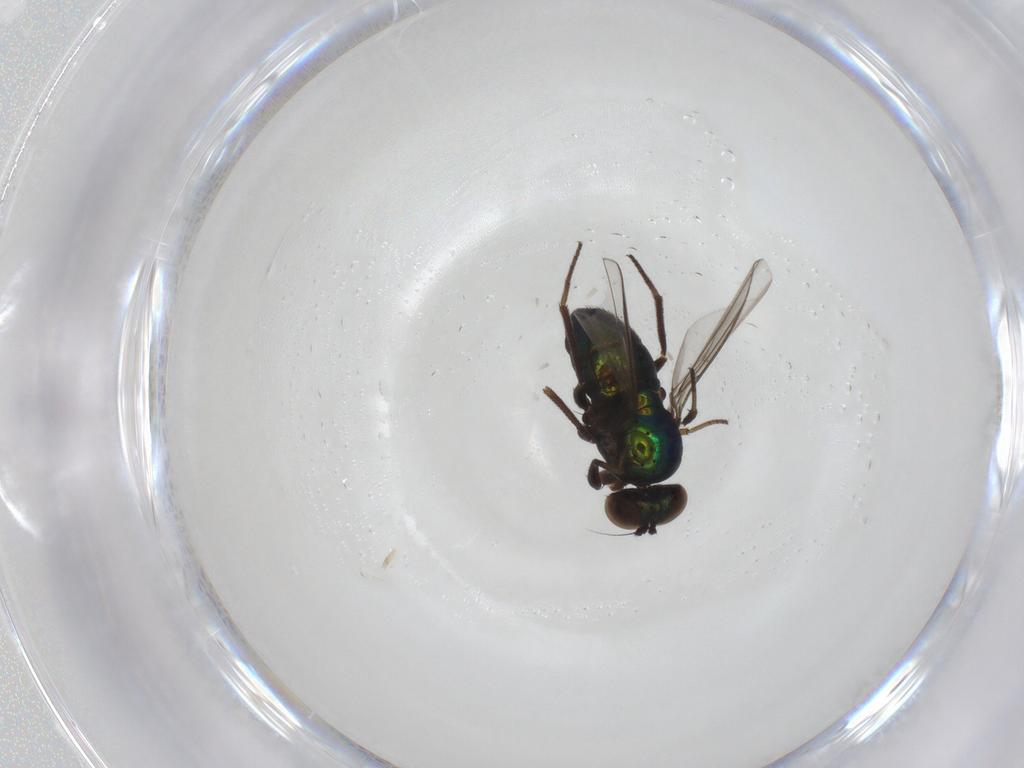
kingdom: Animalia
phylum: Arthropoda
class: Insecta
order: Diptera
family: Dolichopodidae
